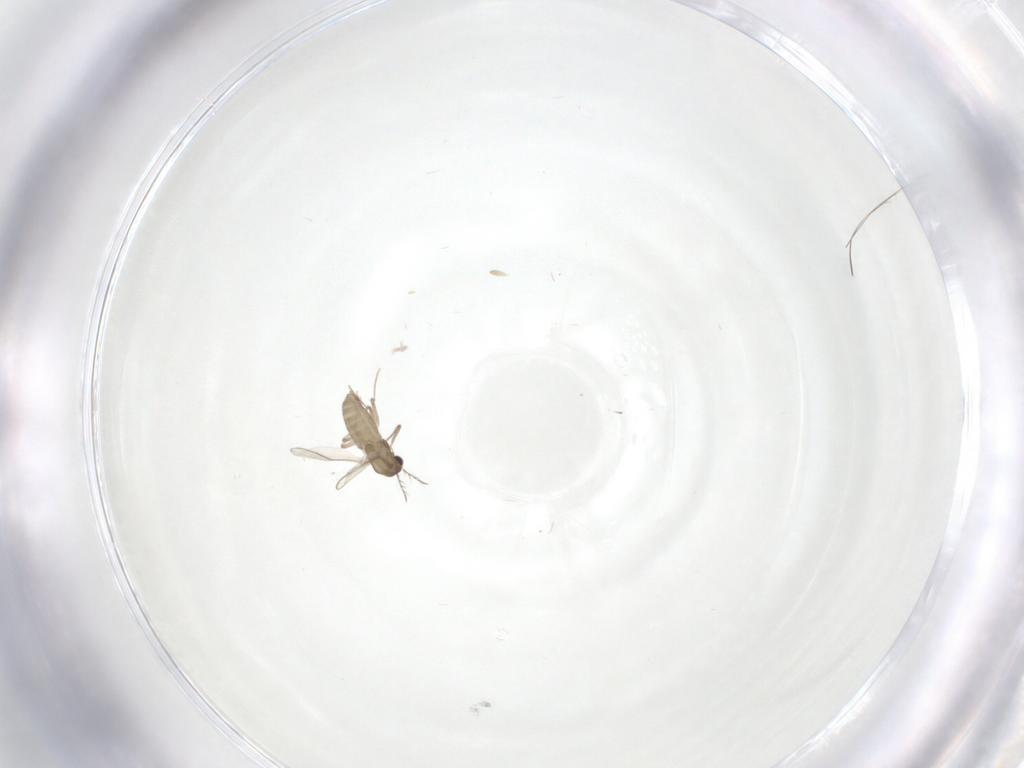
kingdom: Animalia
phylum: Arthropoda
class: Insecta
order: Diptera
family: Chironomidae
